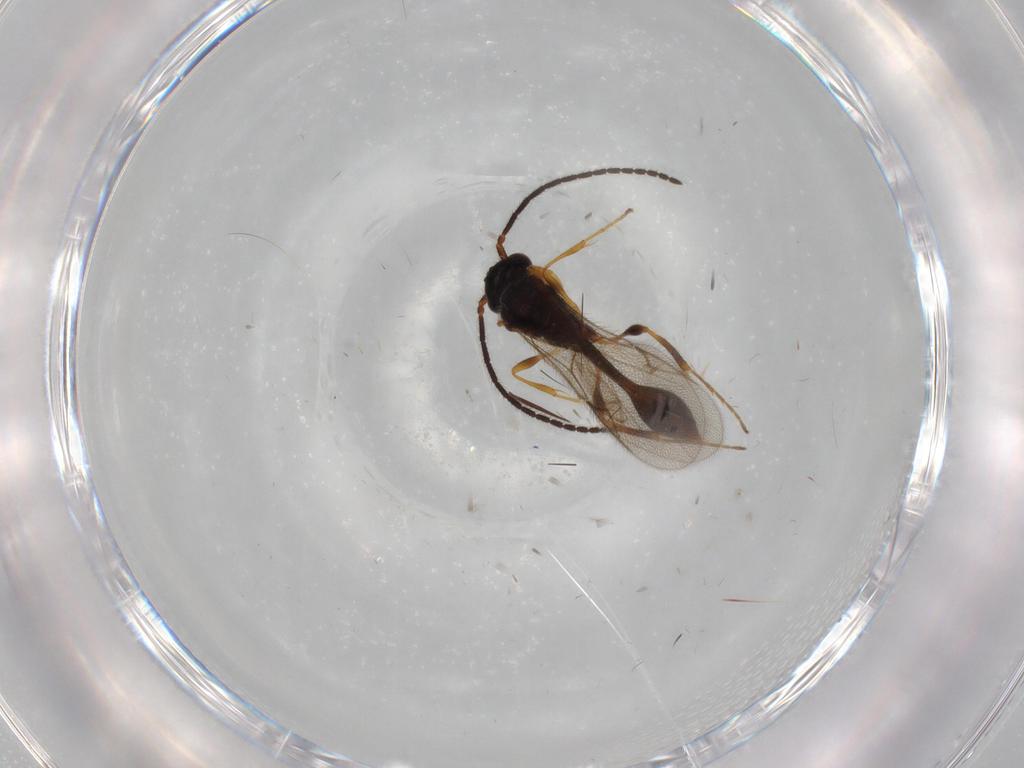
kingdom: Animalia
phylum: Arthropoda
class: Insecta
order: Hymenoptera
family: Diapriidae
